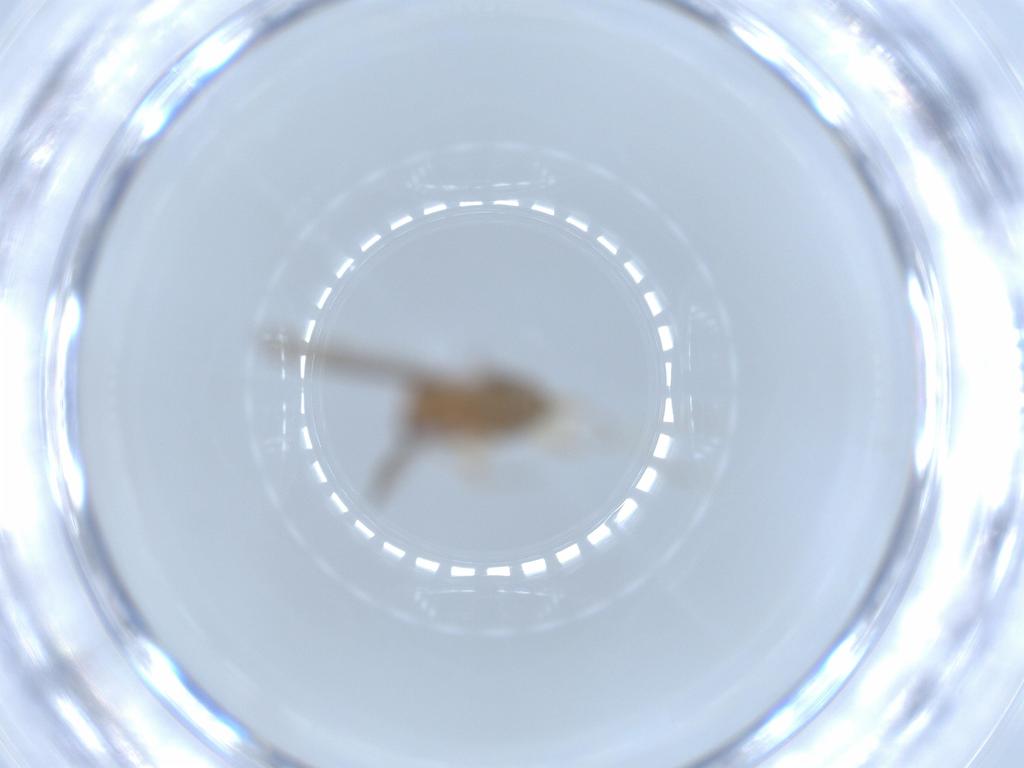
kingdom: Animalia
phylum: Arthropoda
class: Insecta
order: Psocodea
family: Lepidopsocidae
